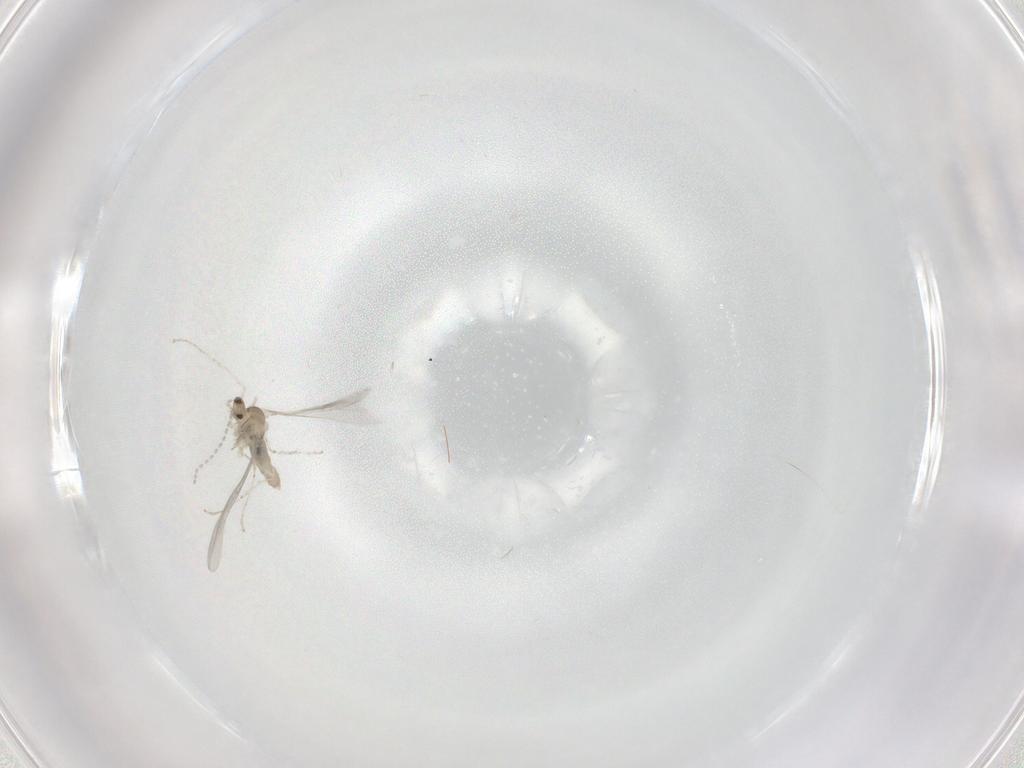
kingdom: Animalia
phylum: Arthropoda
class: Insecta
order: Diptera
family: Cecidomyiidae
